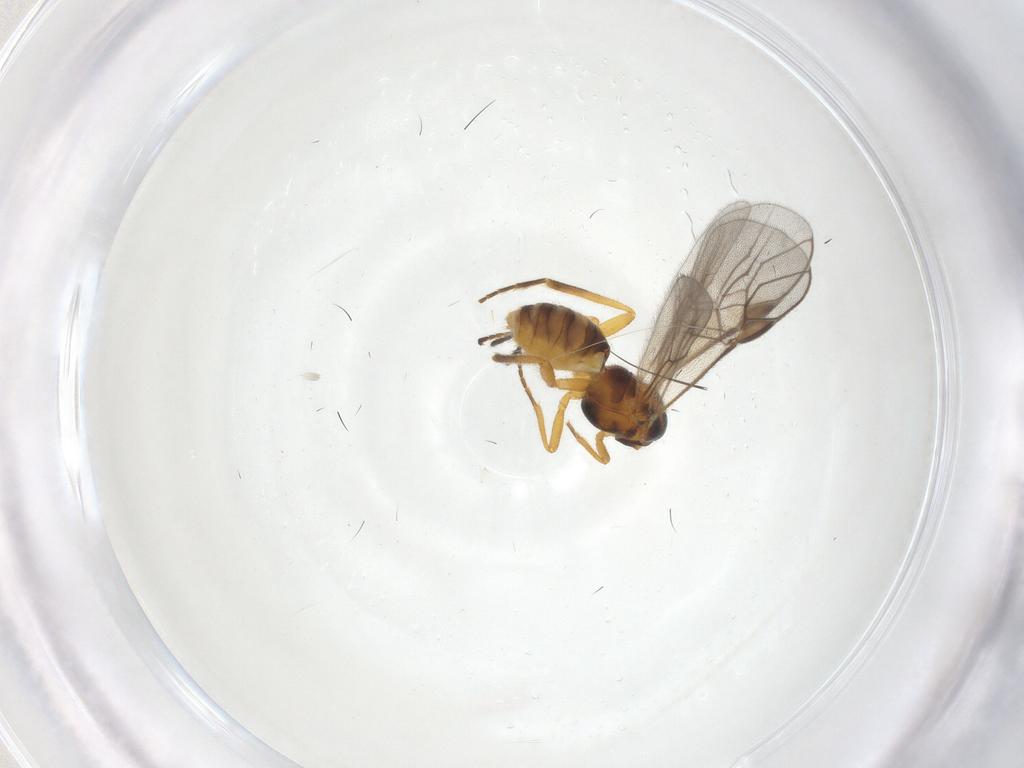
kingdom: Animalia
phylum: Arthropoda
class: Insecta
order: Hymenoptera
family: Braconidae
